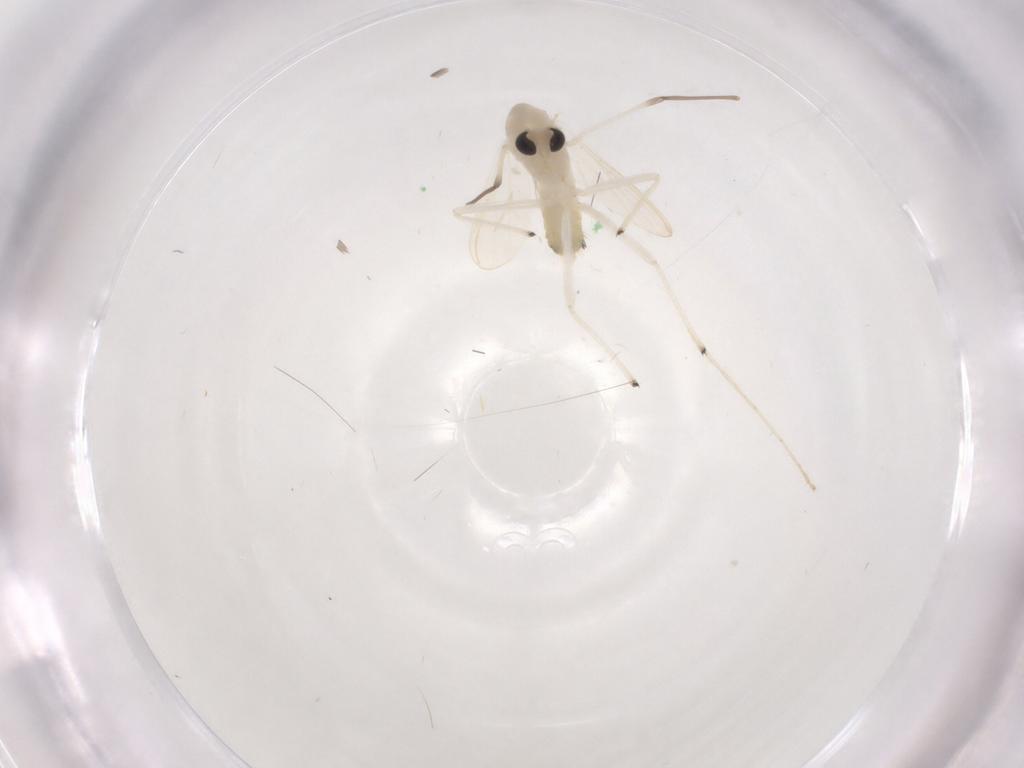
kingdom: Animalia
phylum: Arthropoda
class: Insecta
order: Diptera
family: Chironomidae
